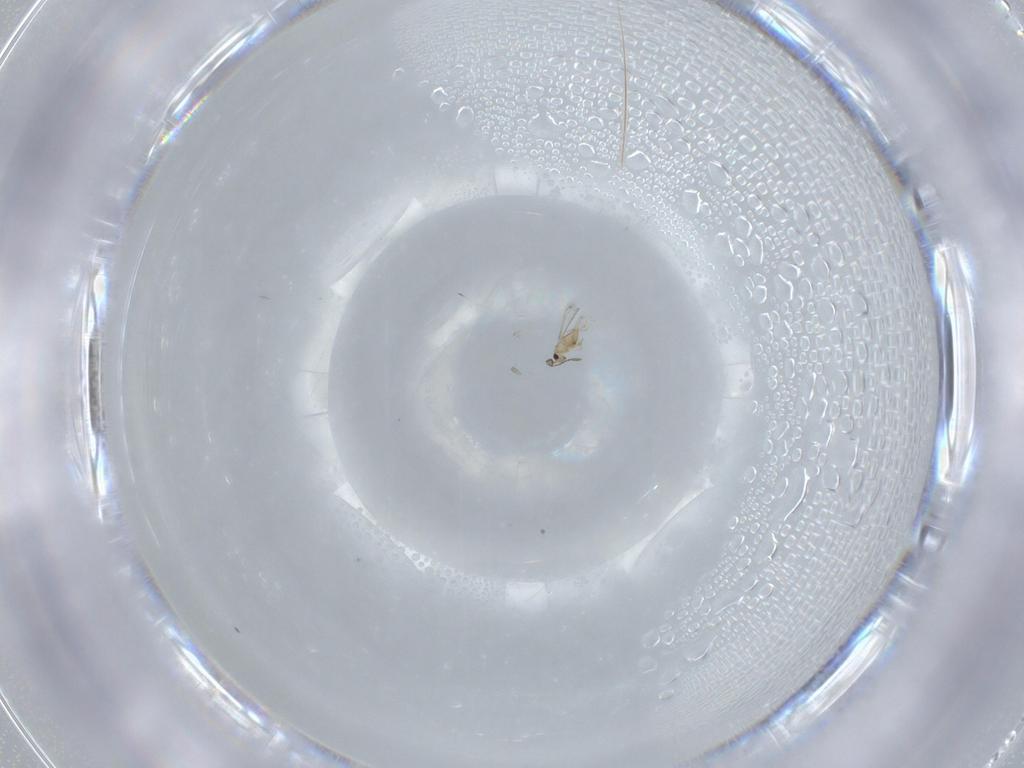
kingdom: Animalia
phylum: Arthropoda
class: Insecta
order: Hymenoptera
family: Mymaridae
